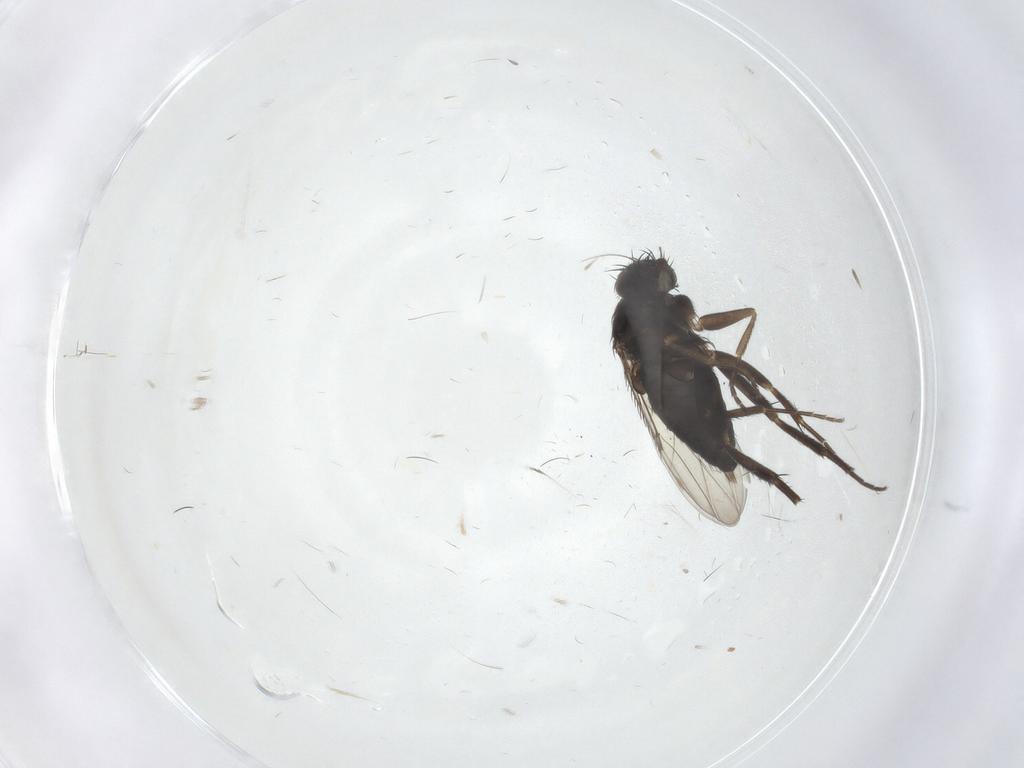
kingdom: Animalia
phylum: Arthropoda
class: Insecta
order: Diptera
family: Phoridae
